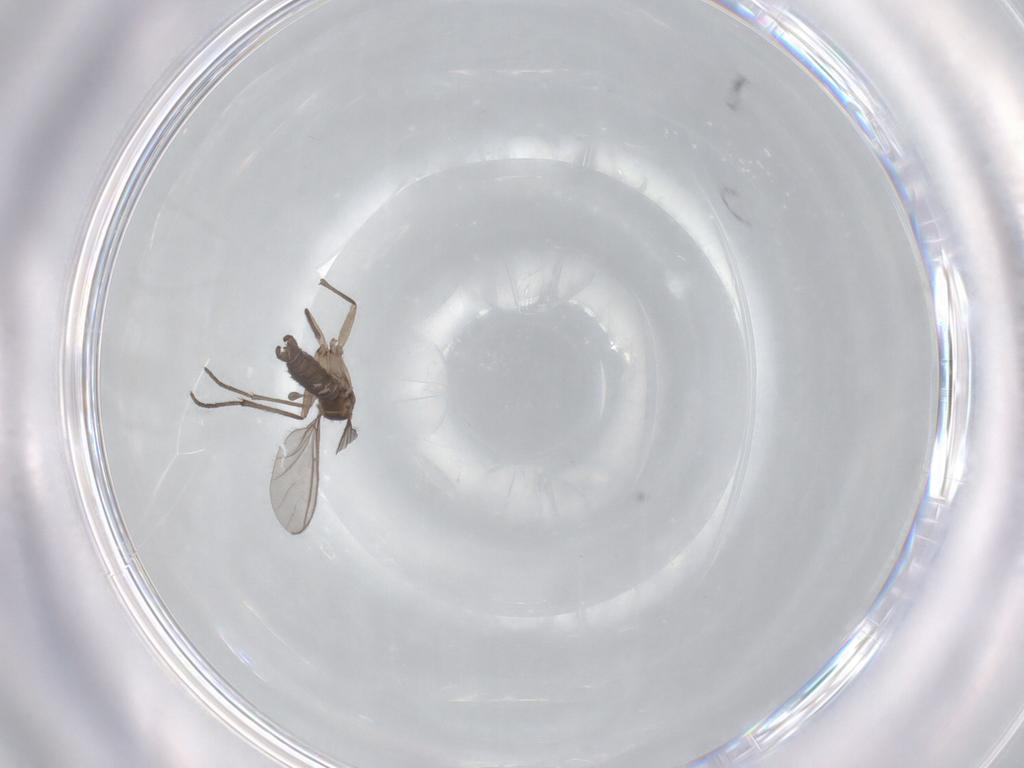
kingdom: Animalia
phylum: Arthropoda
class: Insecta
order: Diptera
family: Sciaridae
